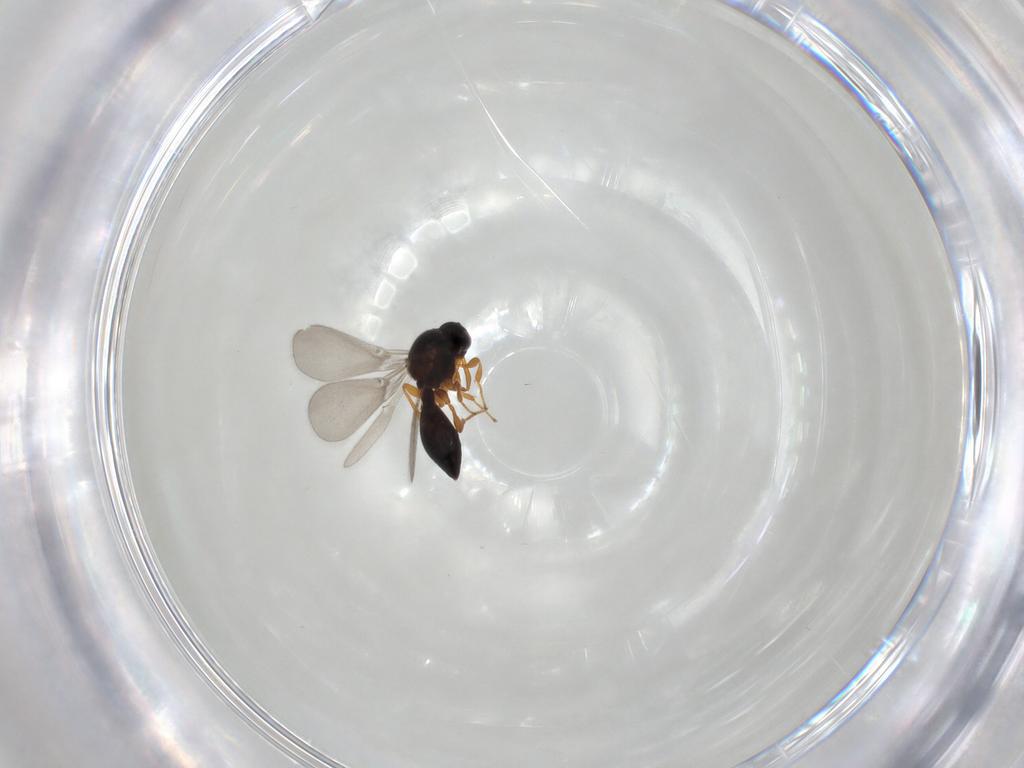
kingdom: Animalia
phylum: Arthropoda
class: Insecta
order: Hymenoptera
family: Platygastridae
